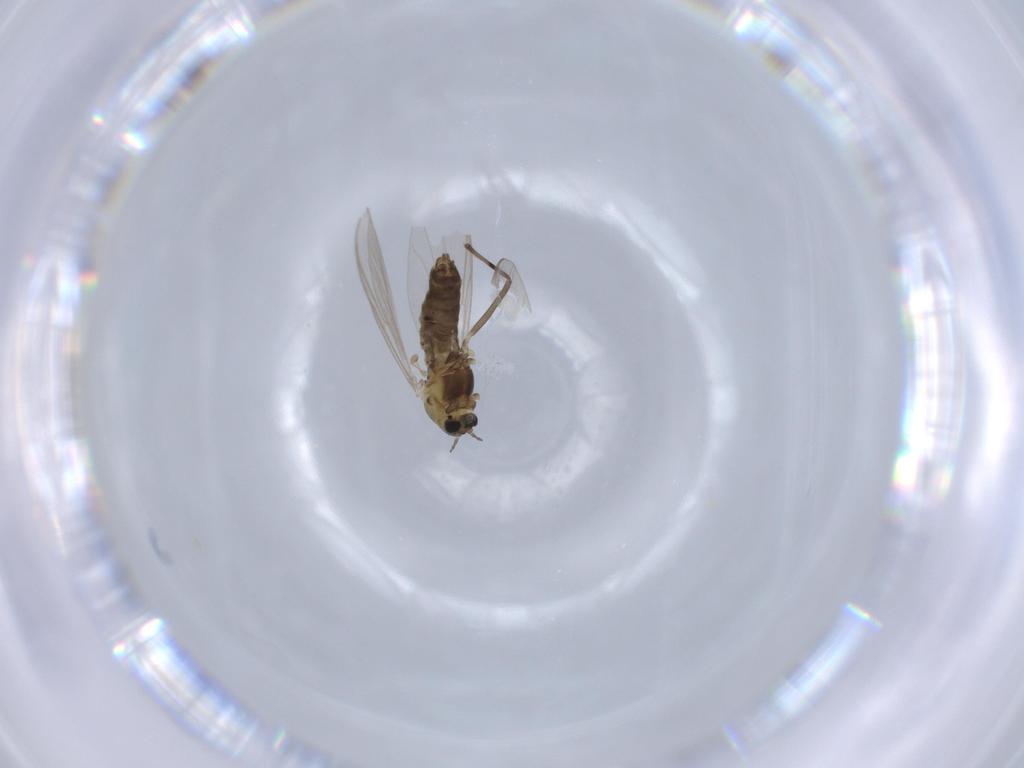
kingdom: Animalia
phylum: Arthropoda
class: Insecta
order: Diptera
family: Chironomidae
